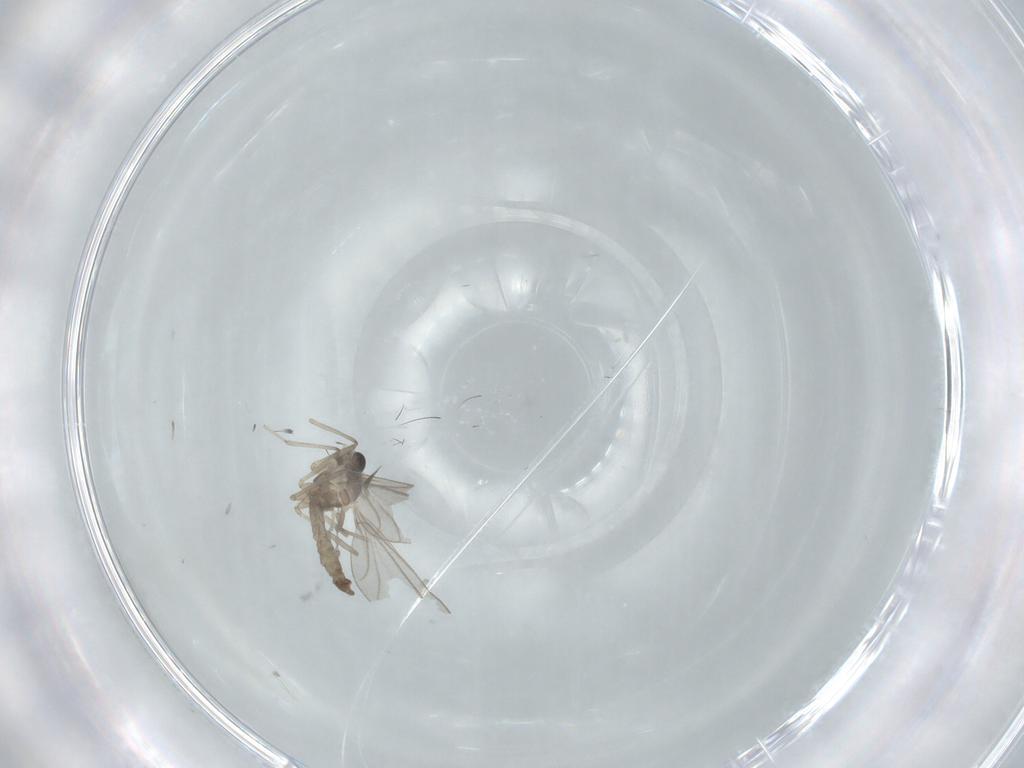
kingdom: Animalia
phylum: Arthropoda
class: Insecta
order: Diptera
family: Cecidomyiidae
